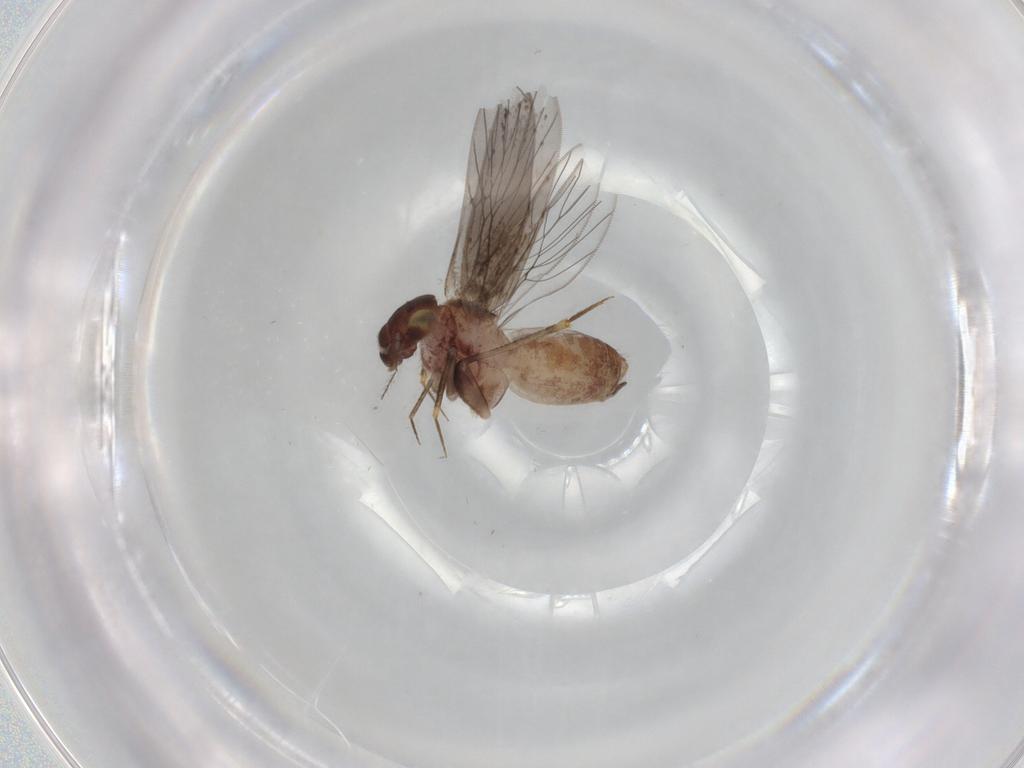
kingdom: Animalia
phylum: Arthropoda
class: Insecta
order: Psocodea
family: Lepidopsocidae
